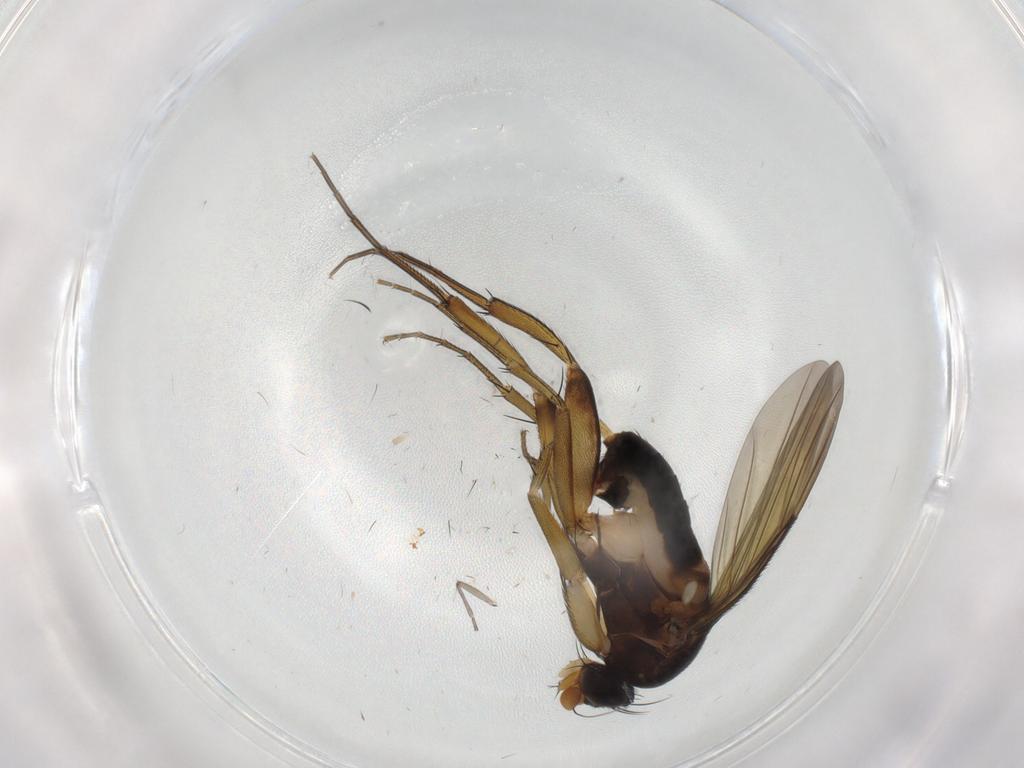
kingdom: Animalia
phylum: Arthropoda
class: Insecta
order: Diptera
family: Phoridae
